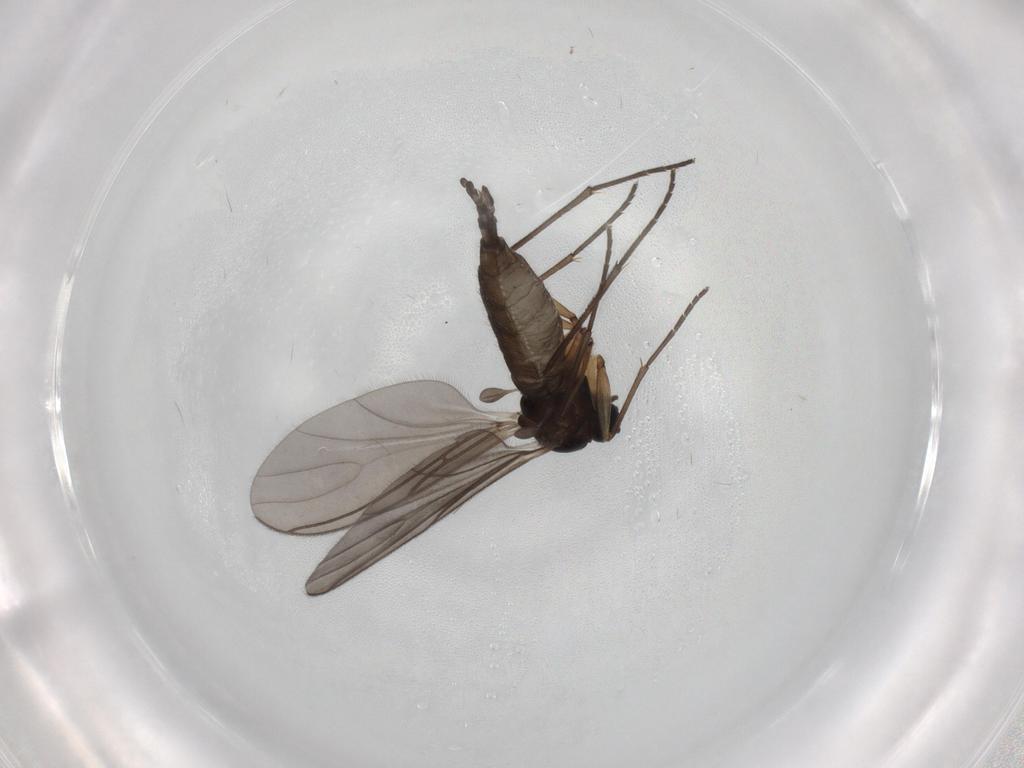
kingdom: Animalia
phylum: Arthropoda
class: Insecta
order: Diptera
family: Sciaridae
